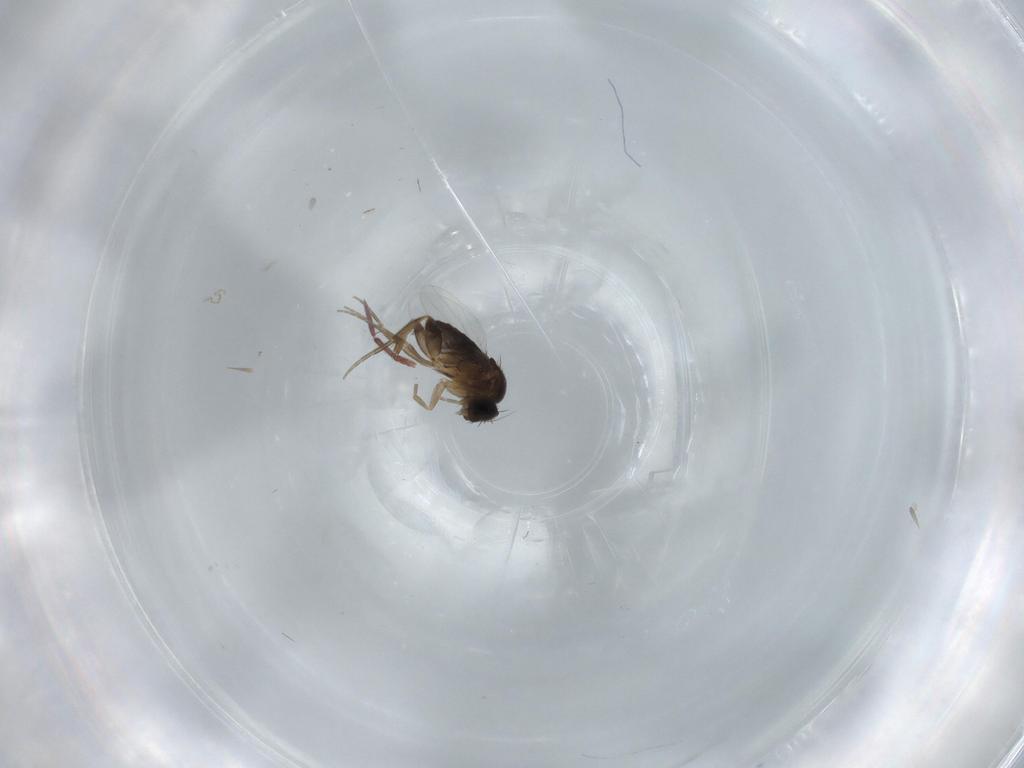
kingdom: Animalia
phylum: Arthropoda
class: Insecta
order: Diptera
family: Phoridae
